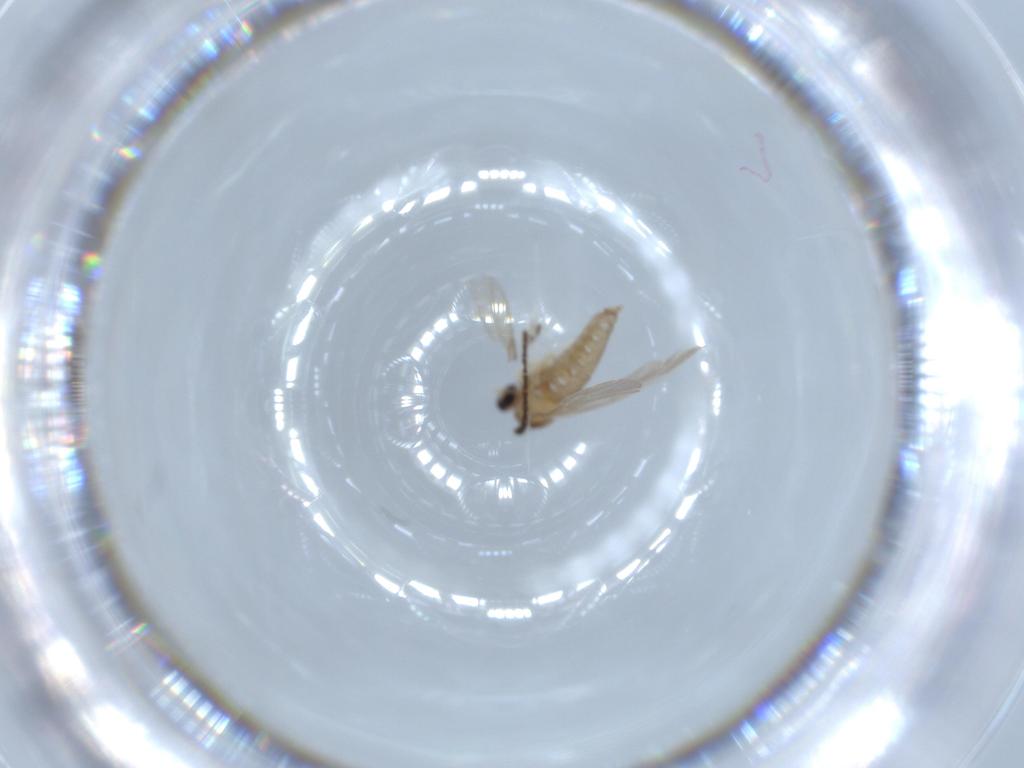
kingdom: Animalia
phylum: Arthropoda
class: Insecta
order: Diptera
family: Cecidomyiidae
